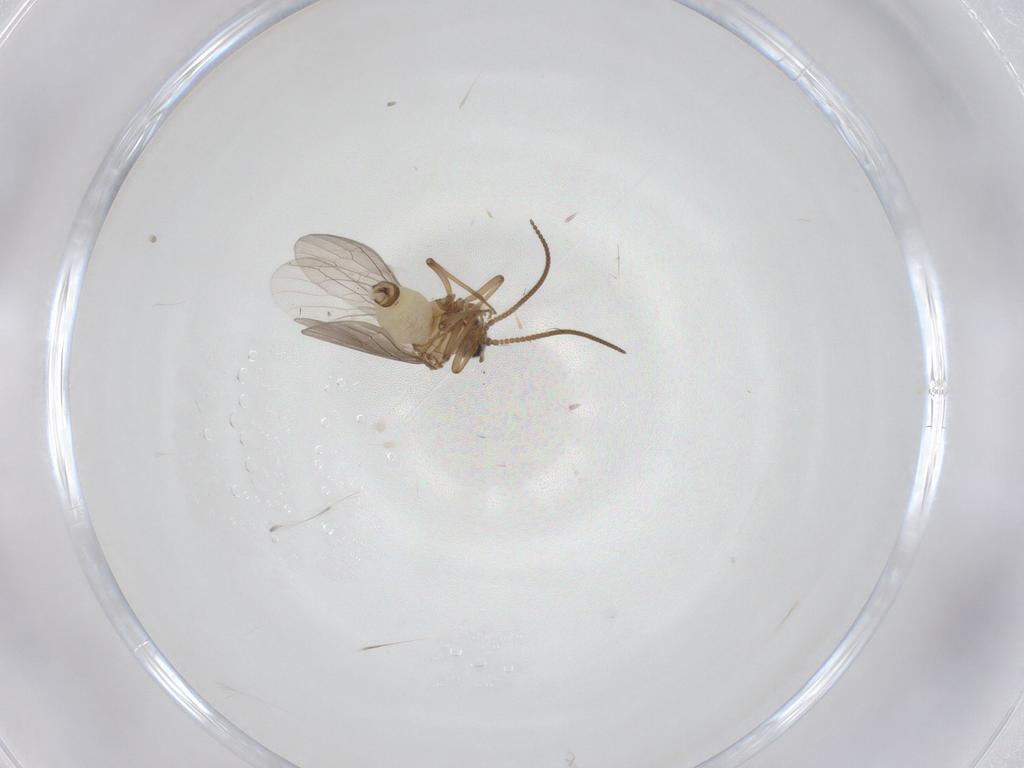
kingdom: Animalia
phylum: Arthropoda
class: Insecta
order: Neuroptera
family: Coniopterygidae
